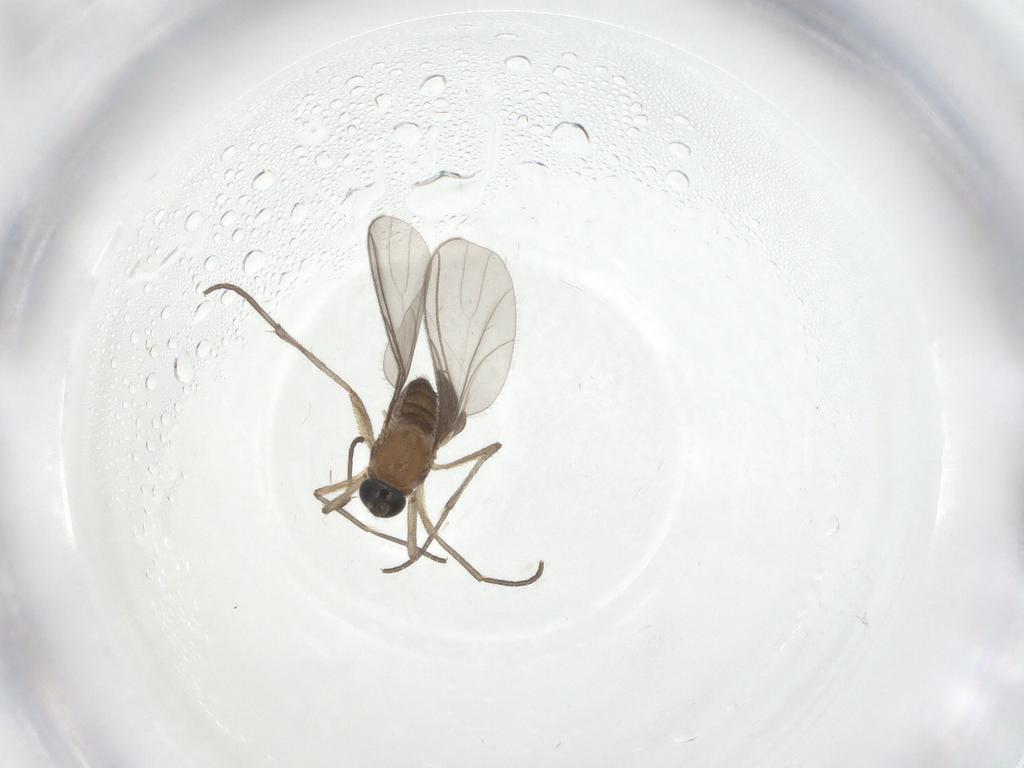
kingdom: Animalia
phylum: Arthropoda
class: Insecta
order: Diptera
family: Sciaridae
